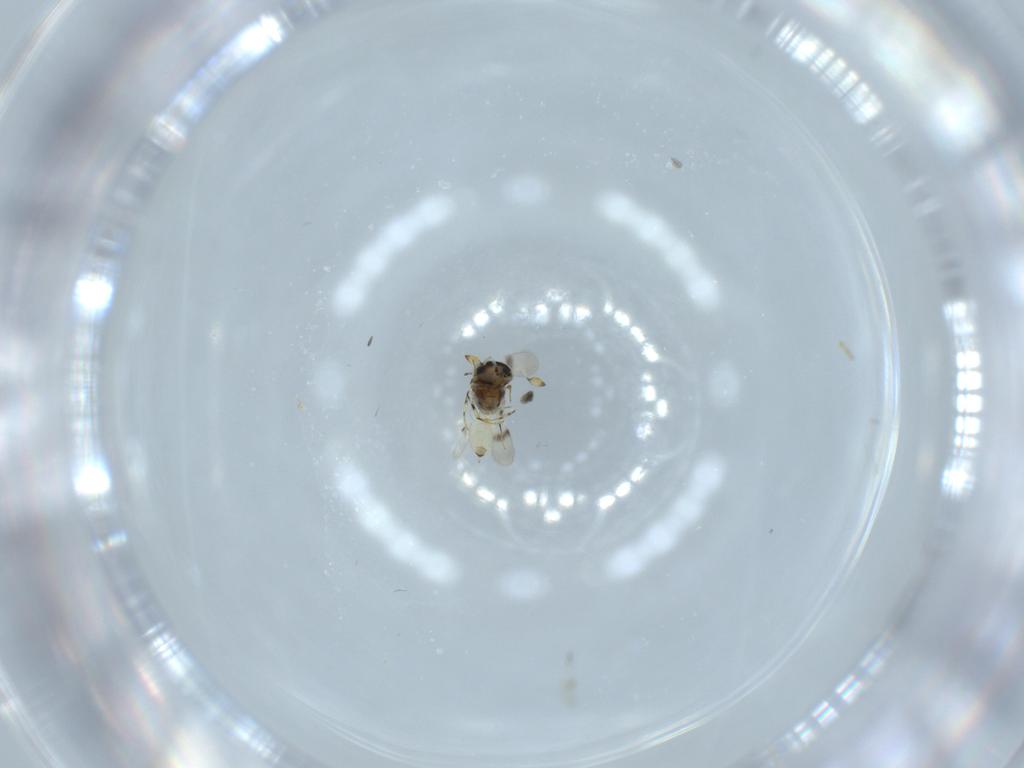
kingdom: Animalia
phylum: Arthropoda
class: Insecta
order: Hymenoptera
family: Scelionidae
